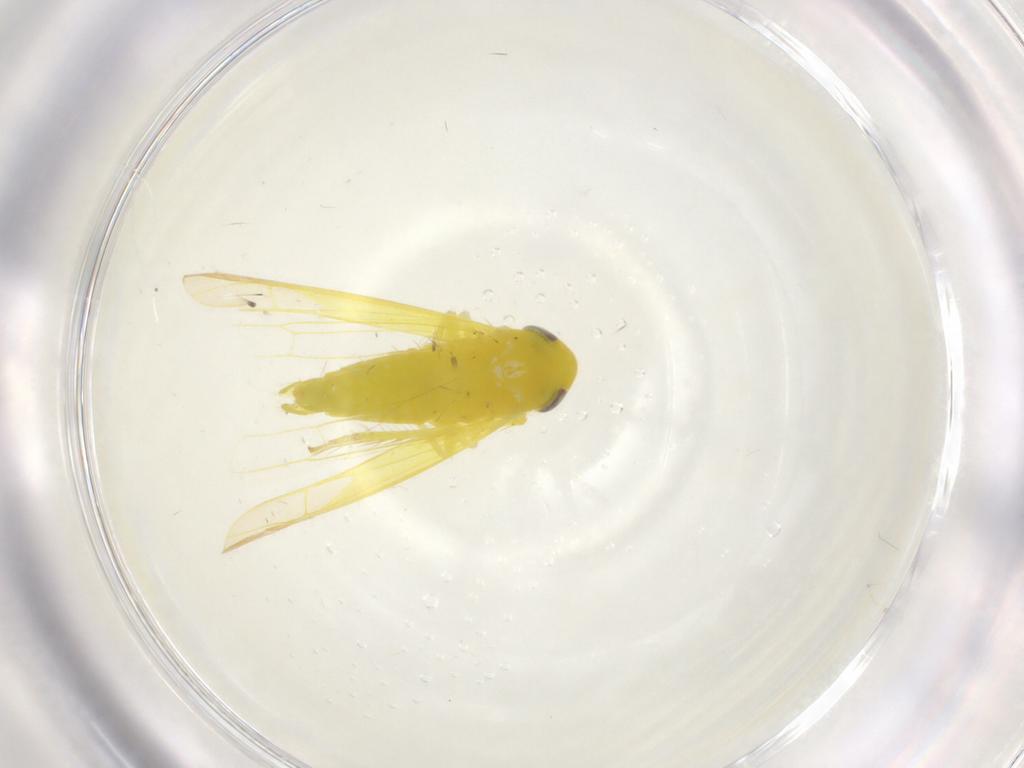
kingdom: Animalia
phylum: Arthropoda
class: Insecta
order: Hemiptera
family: Cicadellidae
